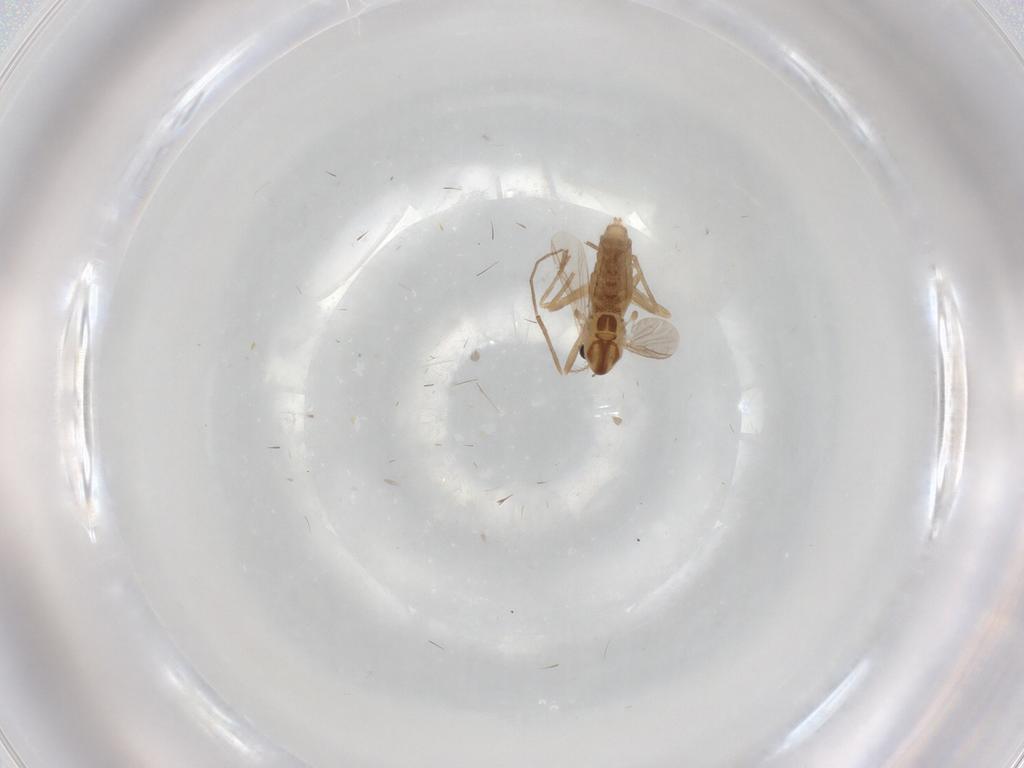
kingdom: Animalia
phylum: Arthropoda
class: Insecta
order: Diptera
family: Chironomidae
